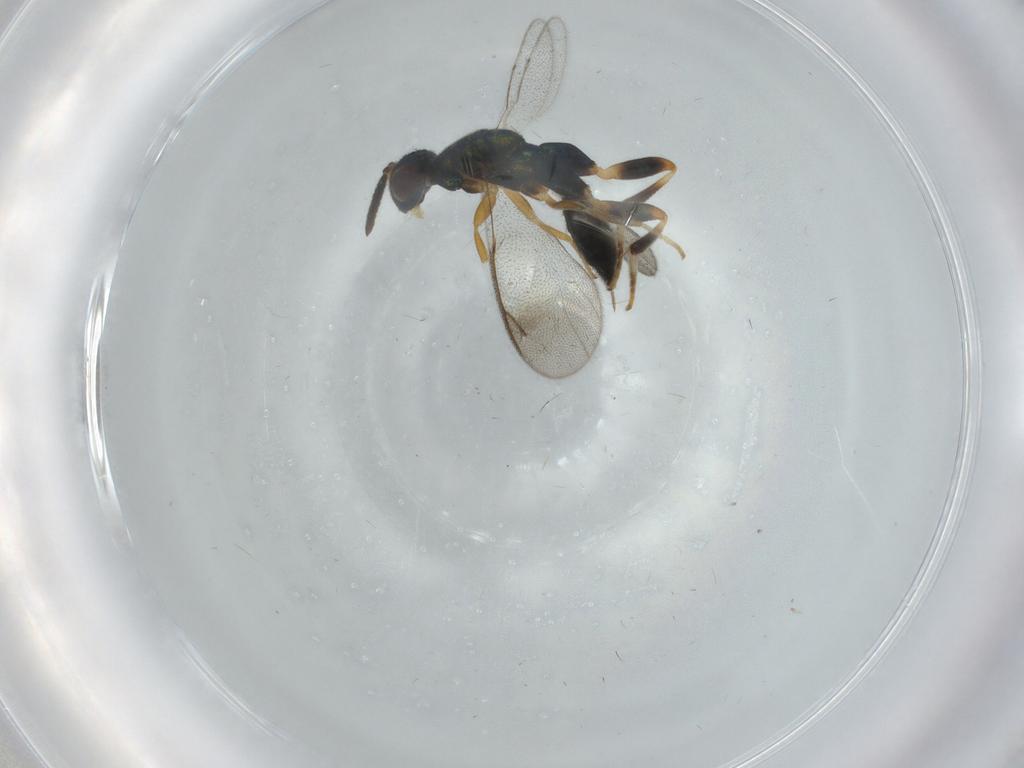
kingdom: Animalia
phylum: Arthropoda
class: Insecta
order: Hymenoptera
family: Cleonyminae
